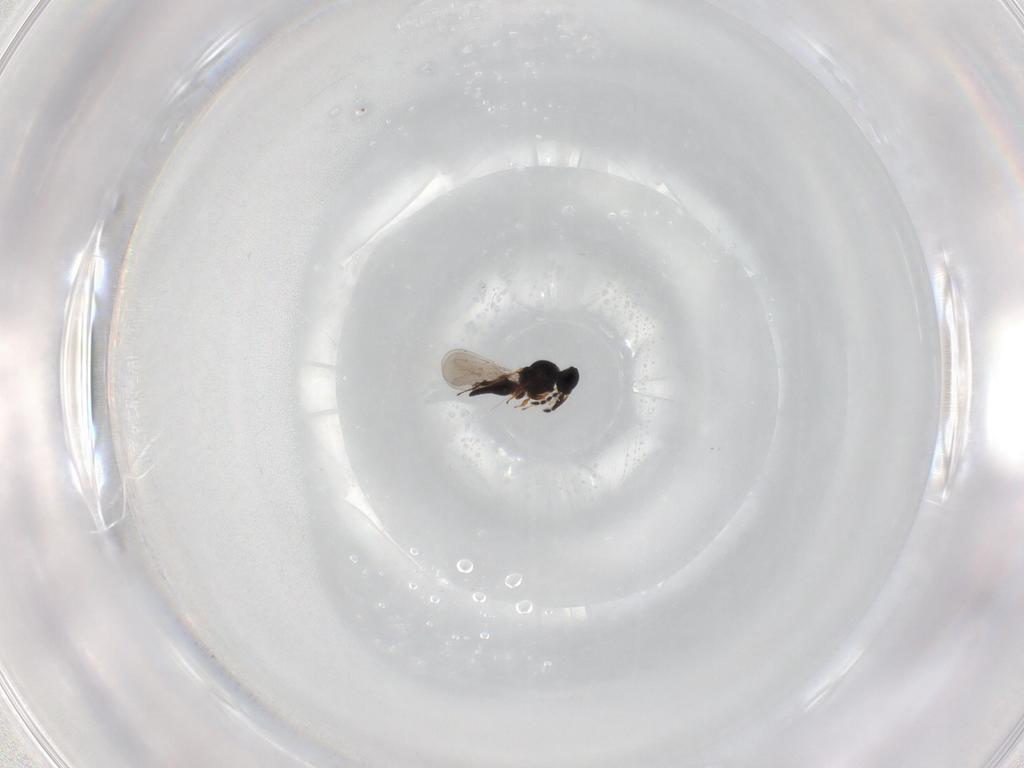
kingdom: Animalia
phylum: Arthropoda
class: Insecta
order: Hymenoptera
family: Platygastridae
